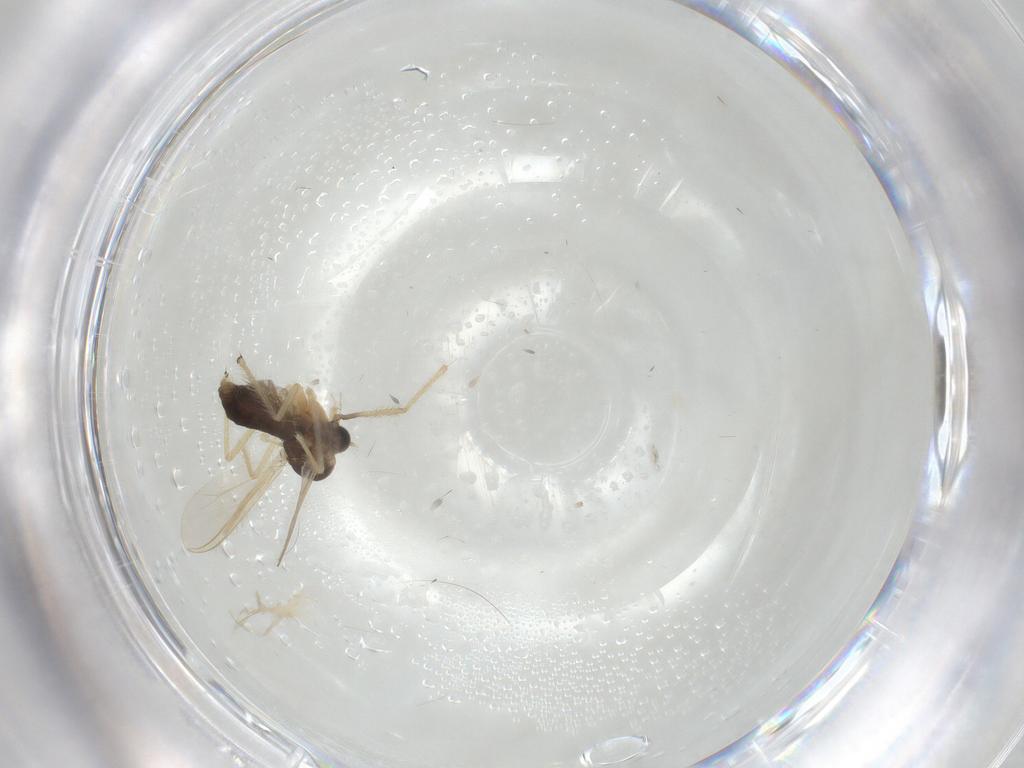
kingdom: Animalia
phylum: Arthropoda
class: Insecta
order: Diptera
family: Chironomidae
